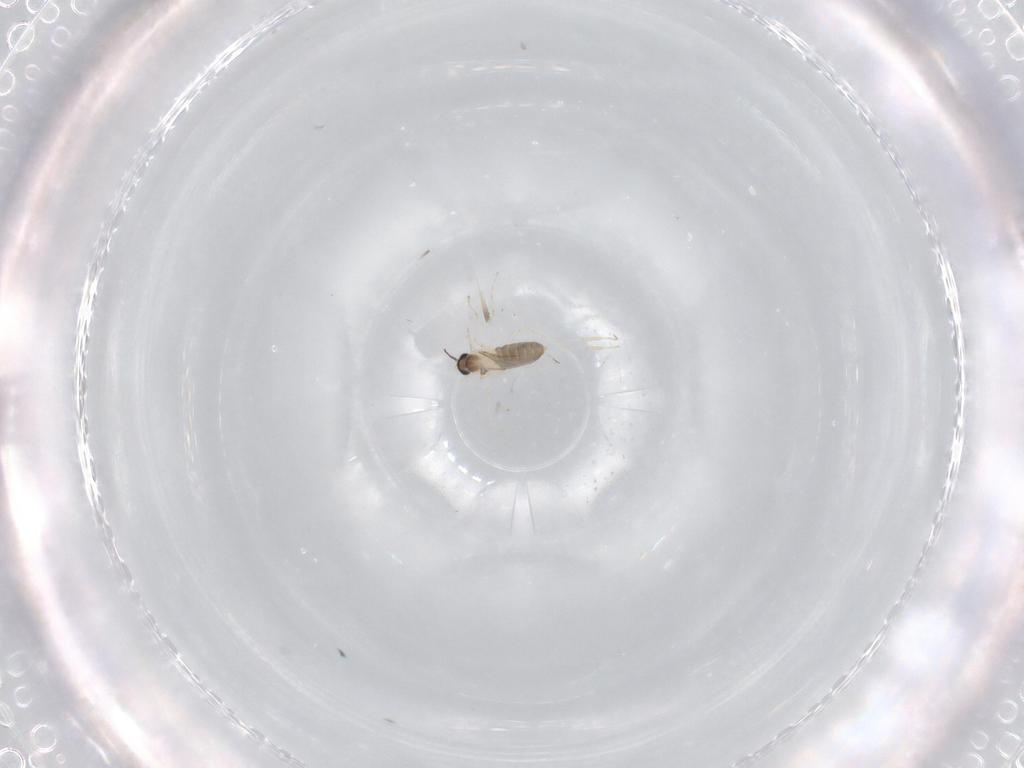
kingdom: Animalia
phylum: Arthropoda
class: Insecta
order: Diptera
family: Ceratopogonidae
